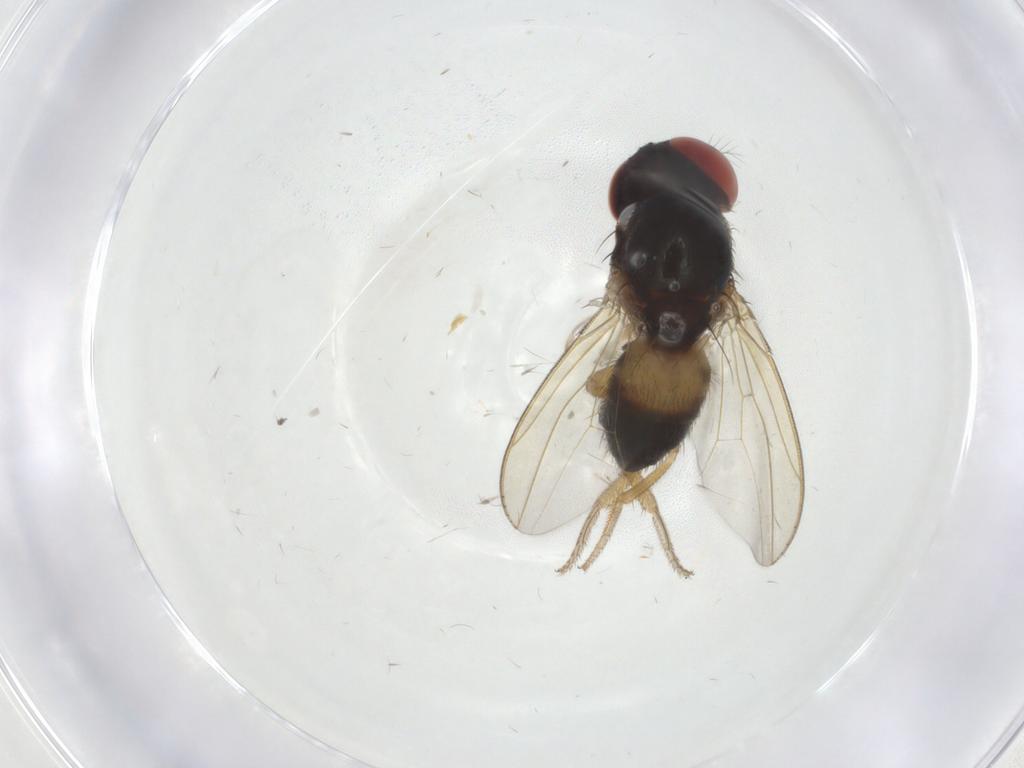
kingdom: Animalia
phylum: Arthropoda
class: Insecta
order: Diptera
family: Drosophilidae
